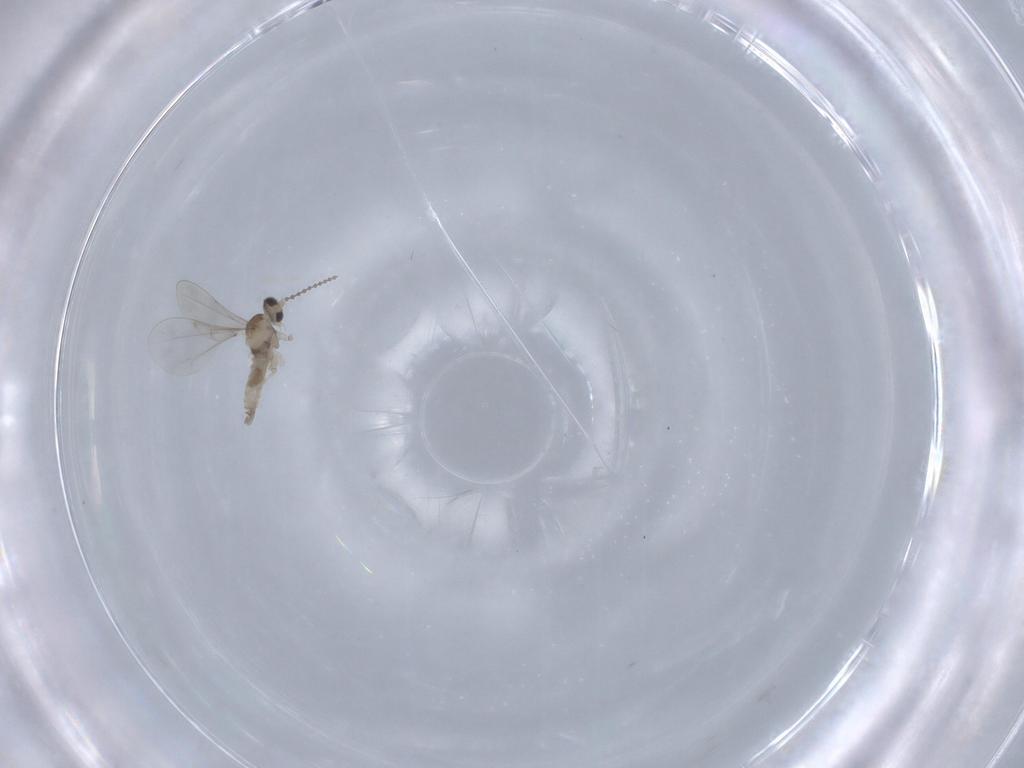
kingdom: Animalia
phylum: Arthropoda
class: Insecta
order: Diptera
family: Cecidomyiidae
